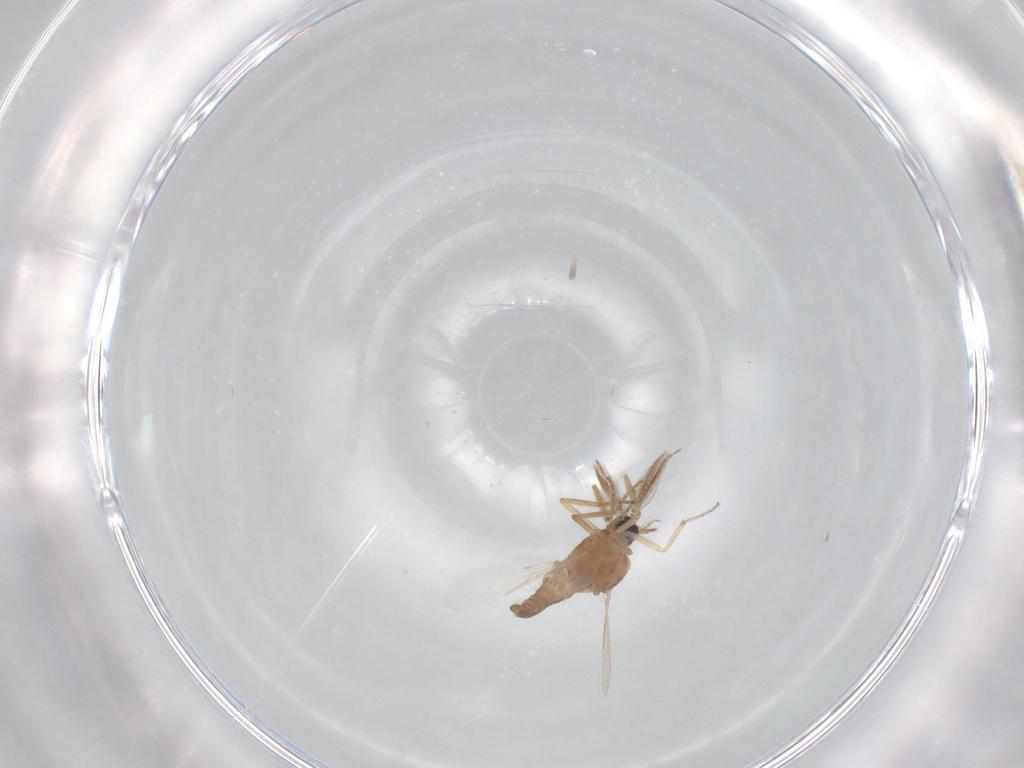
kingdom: Animalia
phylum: Arthropoda
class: Insecta
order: Diptera
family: Ceratopogonidae
